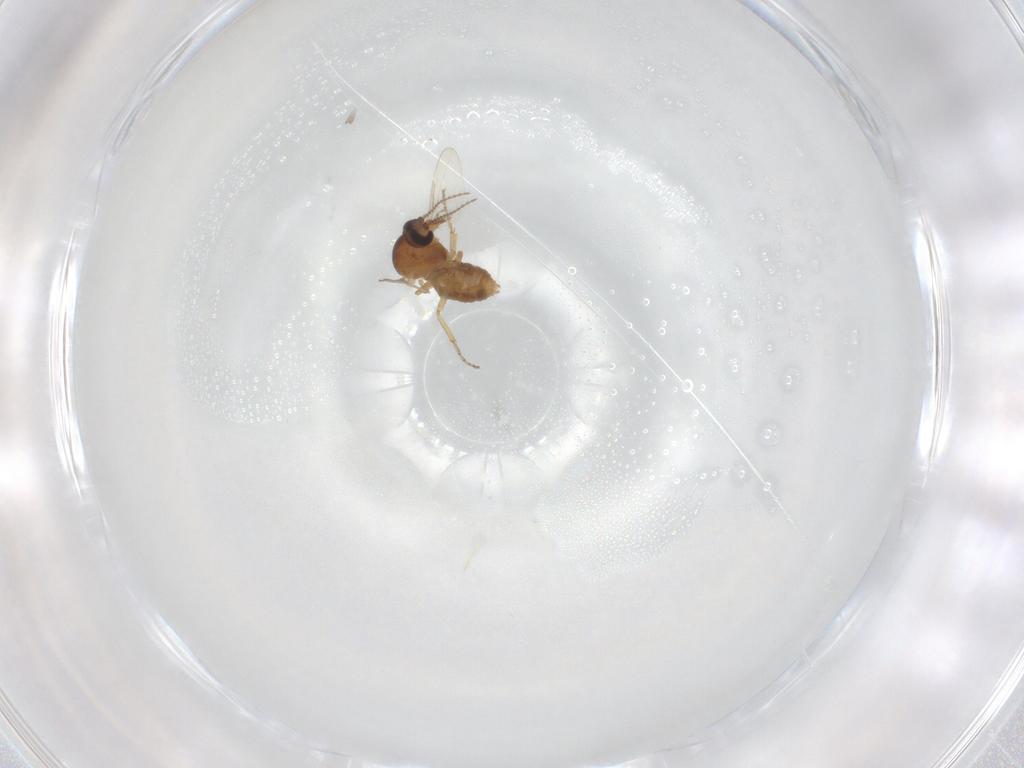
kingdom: Animalia
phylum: Arthropoda
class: Insecta
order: Diptera
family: Ceratopogonidae
